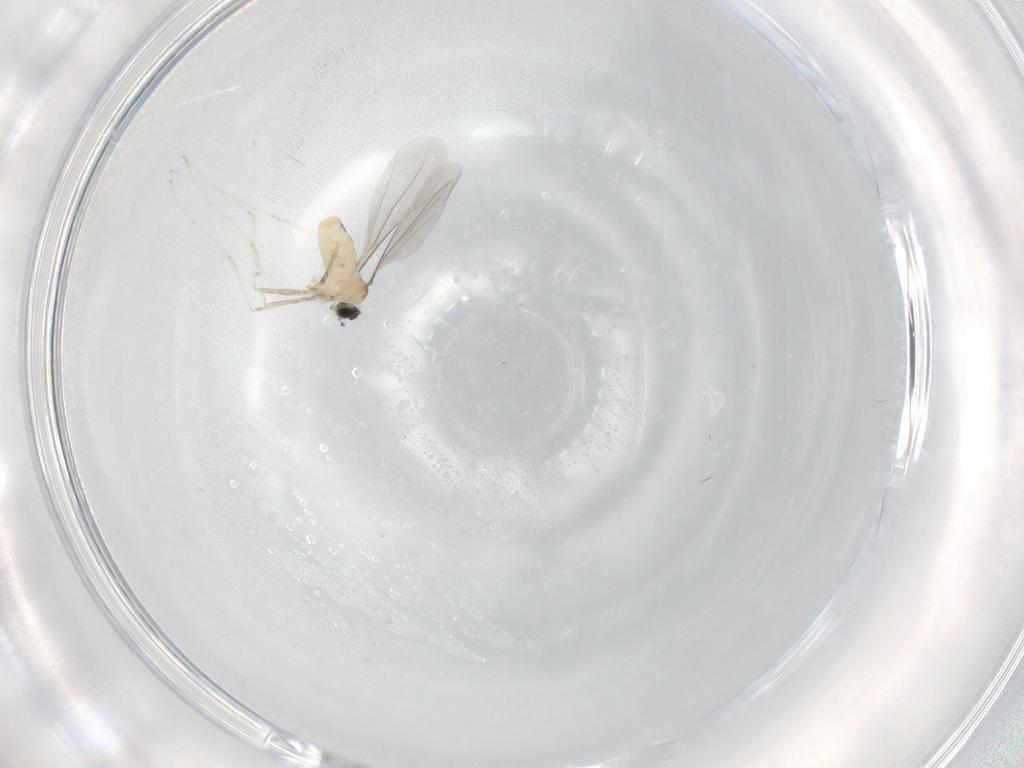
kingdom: Animalia
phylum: Arthropoda
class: Insecta
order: Diptera
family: Cecidomyiidae
